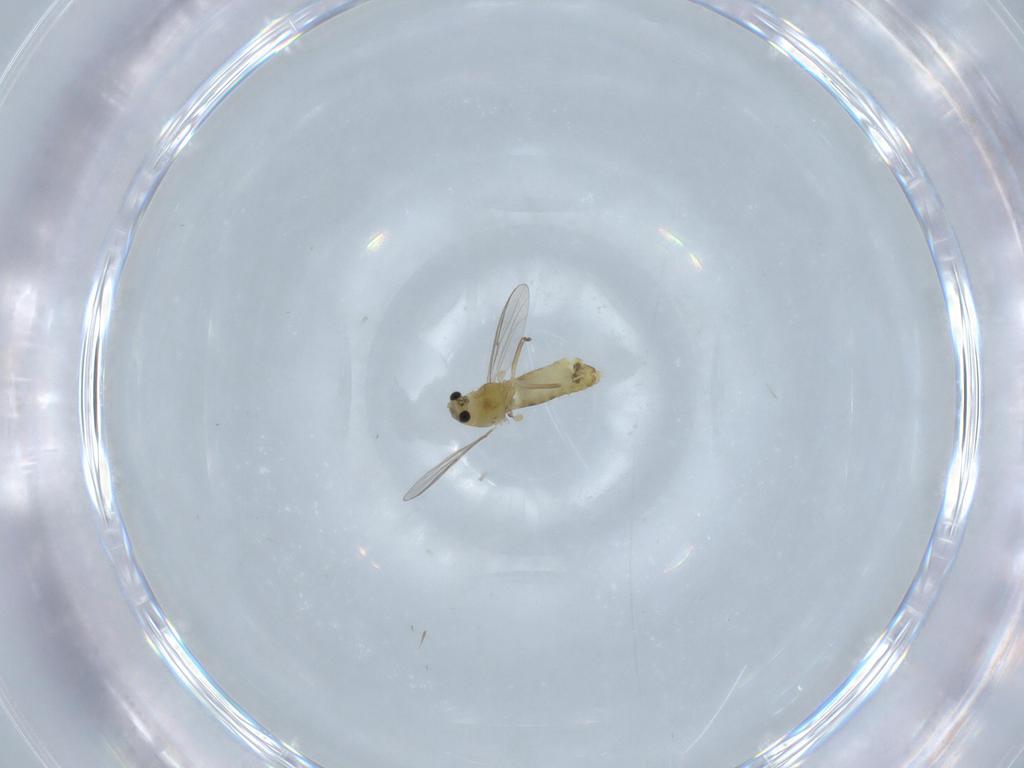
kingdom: Animalia
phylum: Arthropoda
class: Insecta
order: Diptera
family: Chironomidae
